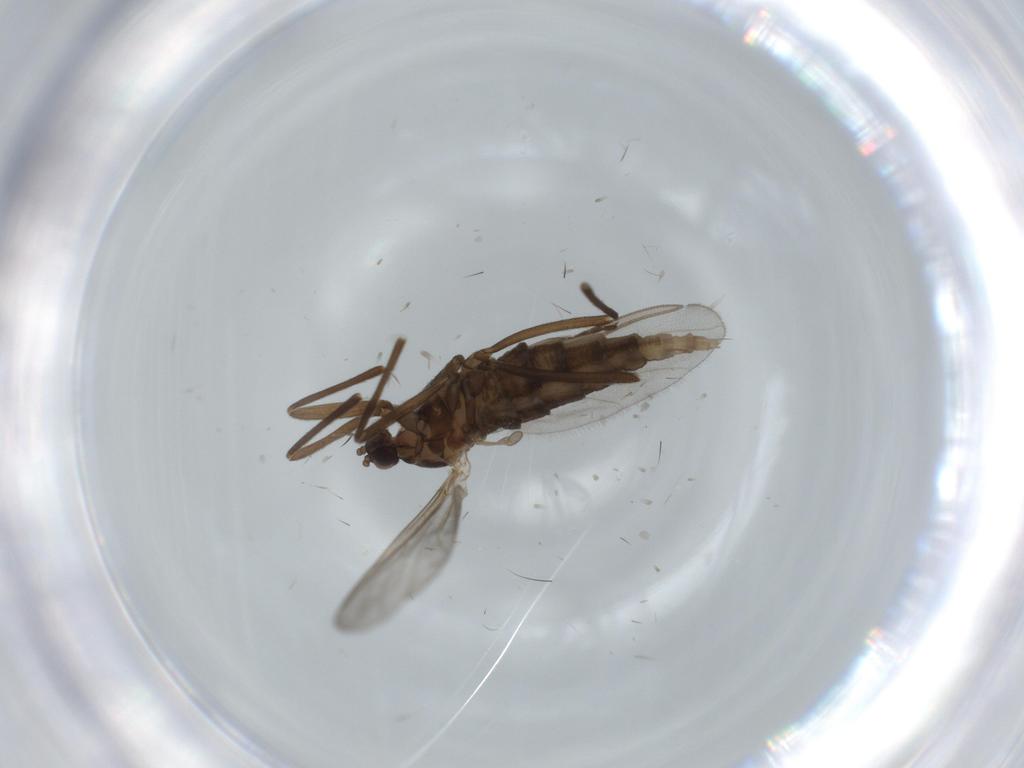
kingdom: Animalia
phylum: Arthropoda
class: Insecta
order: Diptera
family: Cecidomyiidae
